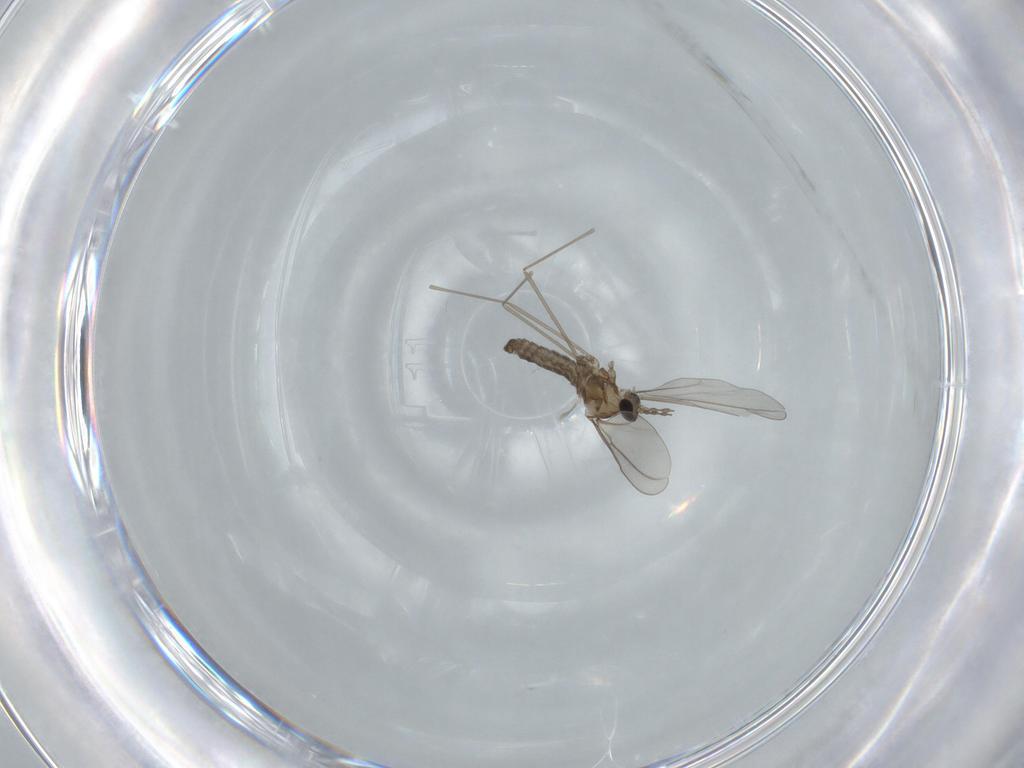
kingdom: Animalia
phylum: Arthropoda
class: Insecta
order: Diptera
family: Cecidomyiidae
